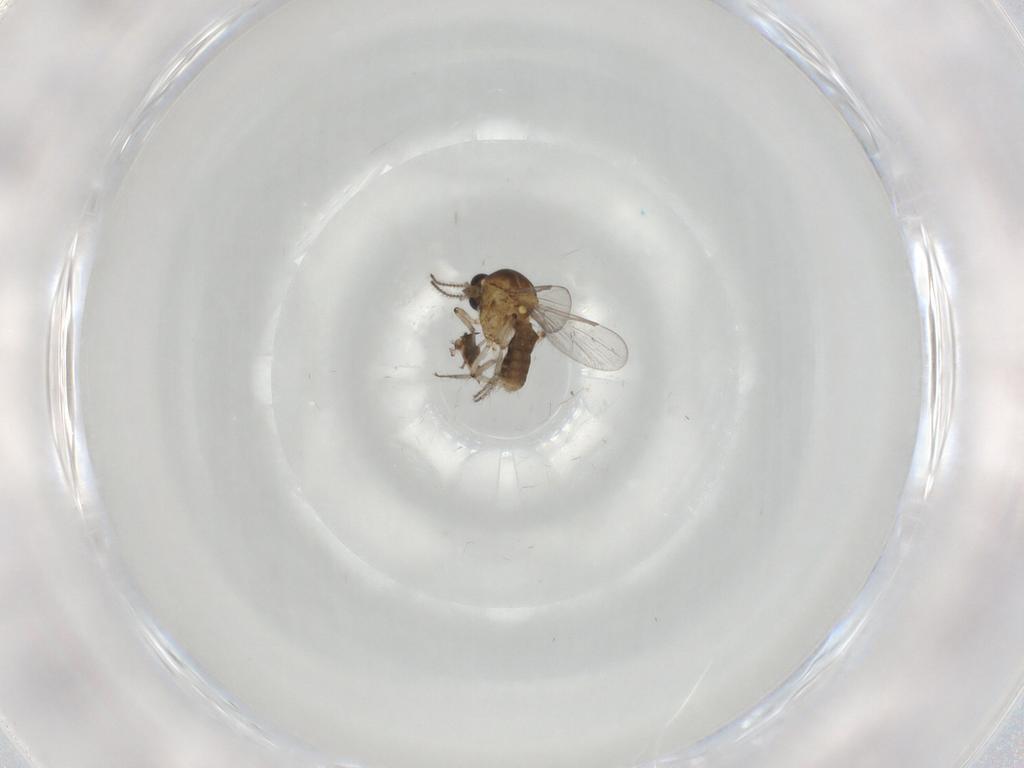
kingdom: Animalia
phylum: Arthropoda
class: Insecta
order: Diptera
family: Ceratopogonidae
